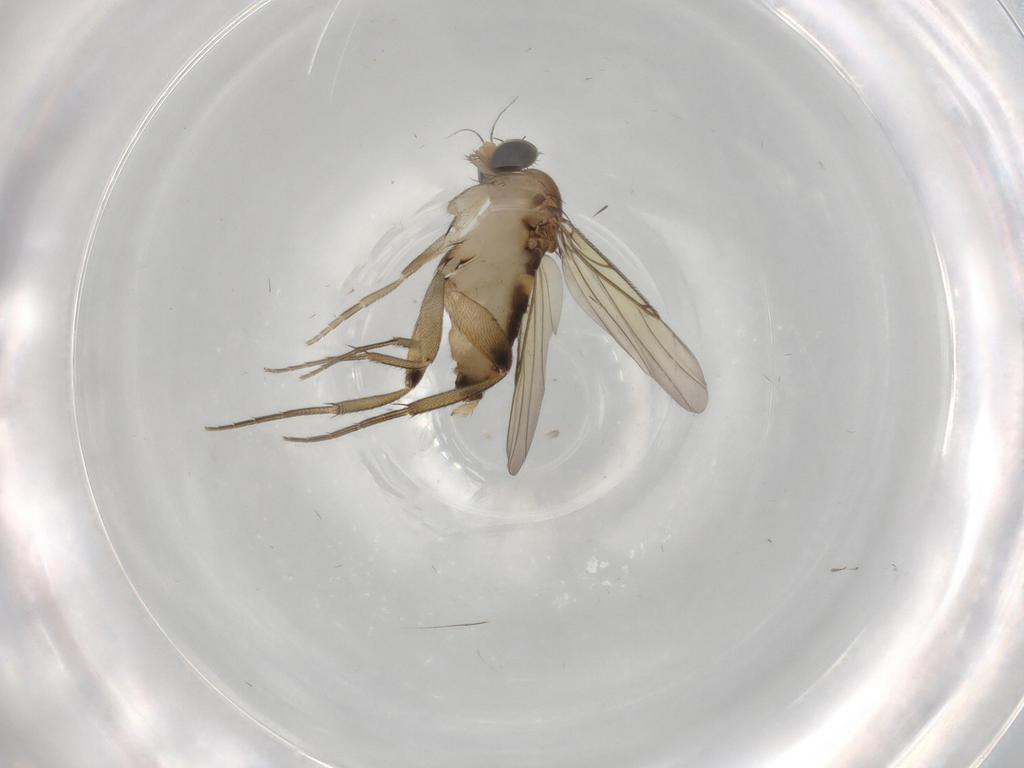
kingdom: Animalia
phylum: Arthropoda
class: Insecta
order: Diptera
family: Phoridae
